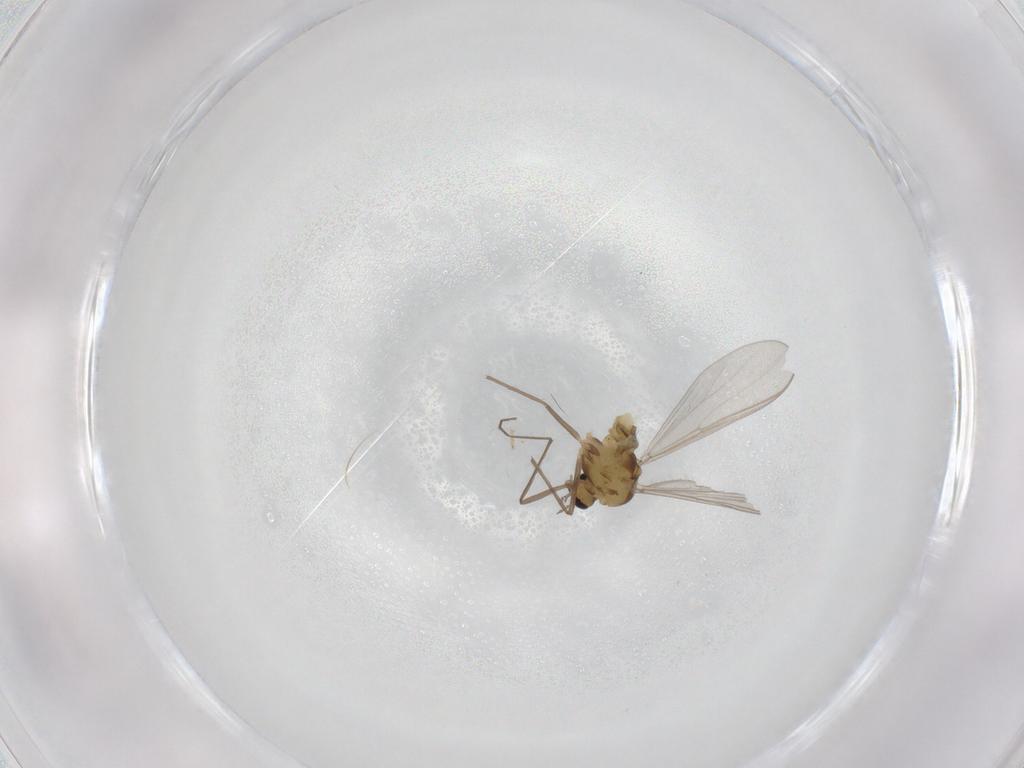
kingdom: Animalia
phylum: Arthropoda
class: Insecta
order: Diptera
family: Chironomidae
